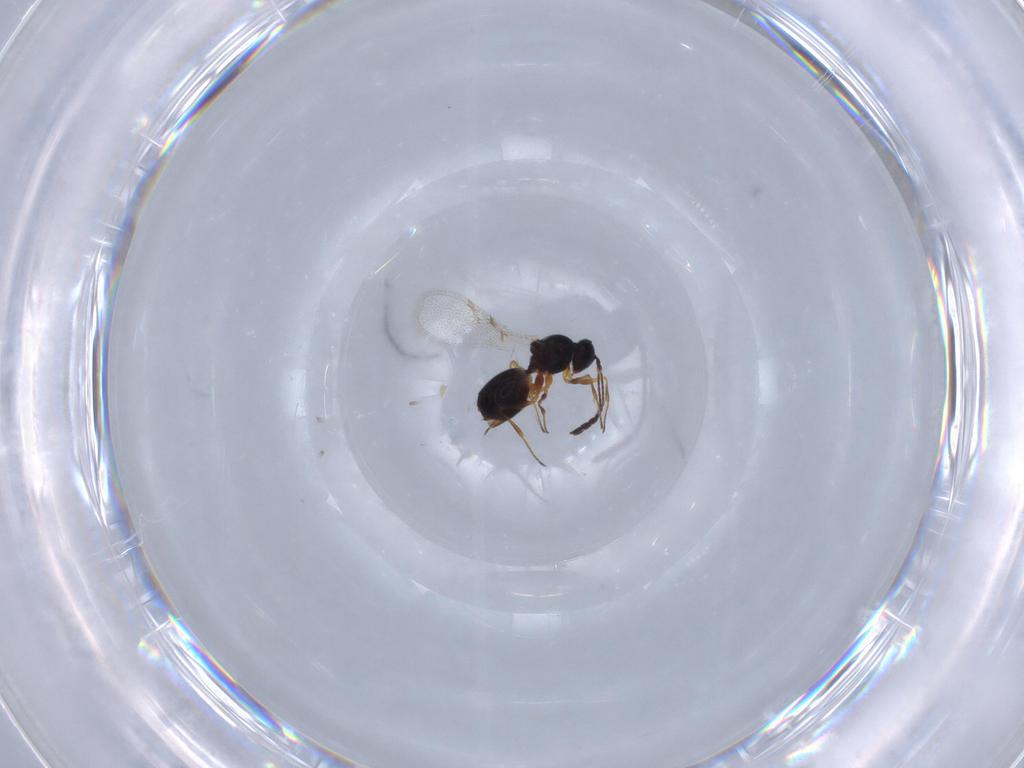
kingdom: Animalia
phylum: Arthropoda
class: Insecta
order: Hymenoptera
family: Figitidae
